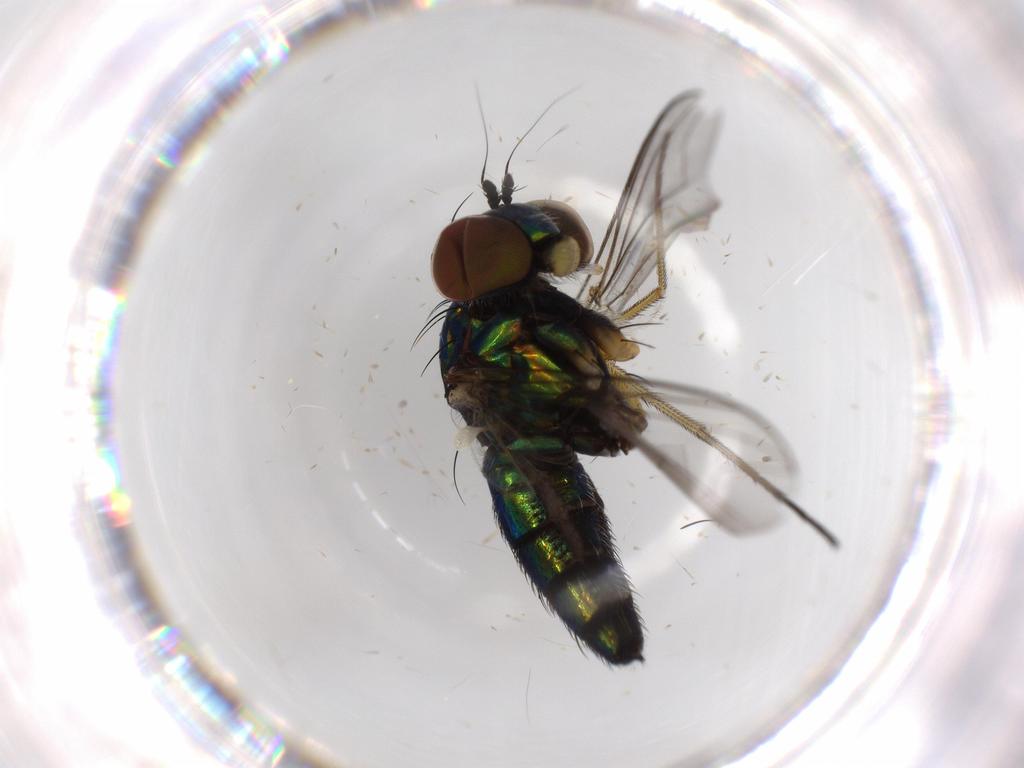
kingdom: Animalia
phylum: Arthropoda
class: Insecta
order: Diptera
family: Dolichopodidae
